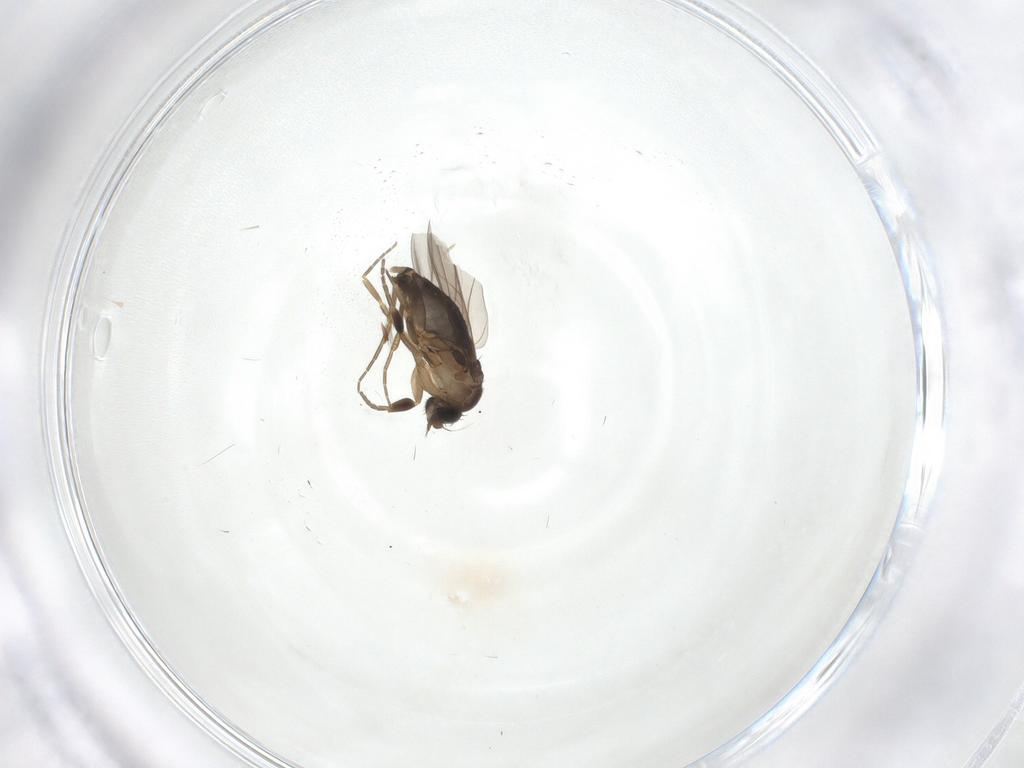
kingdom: Animalia
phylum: Arthropoda
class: Insecta
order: Diptera
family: Phoridae
